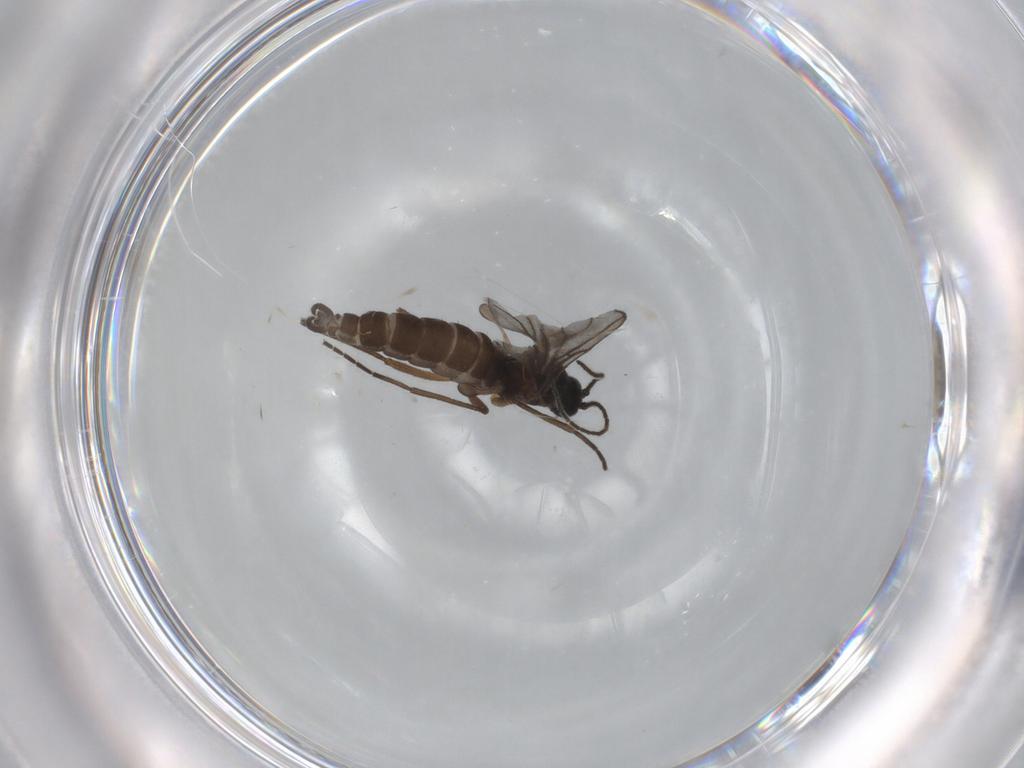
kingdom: Animalia
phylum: Arthropoda
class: Insecta
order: Diptera
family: Sciaridae
